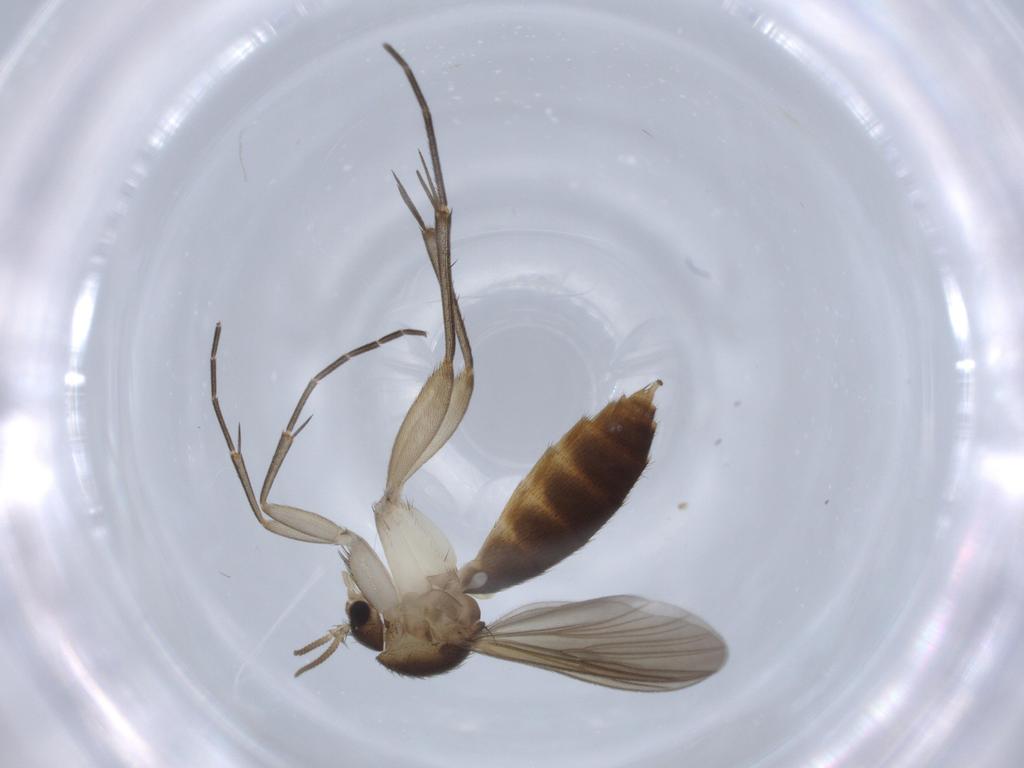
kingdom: Animalia
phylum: Arthropoda
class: Insecta
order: Diptera
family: Mycetophilidae
